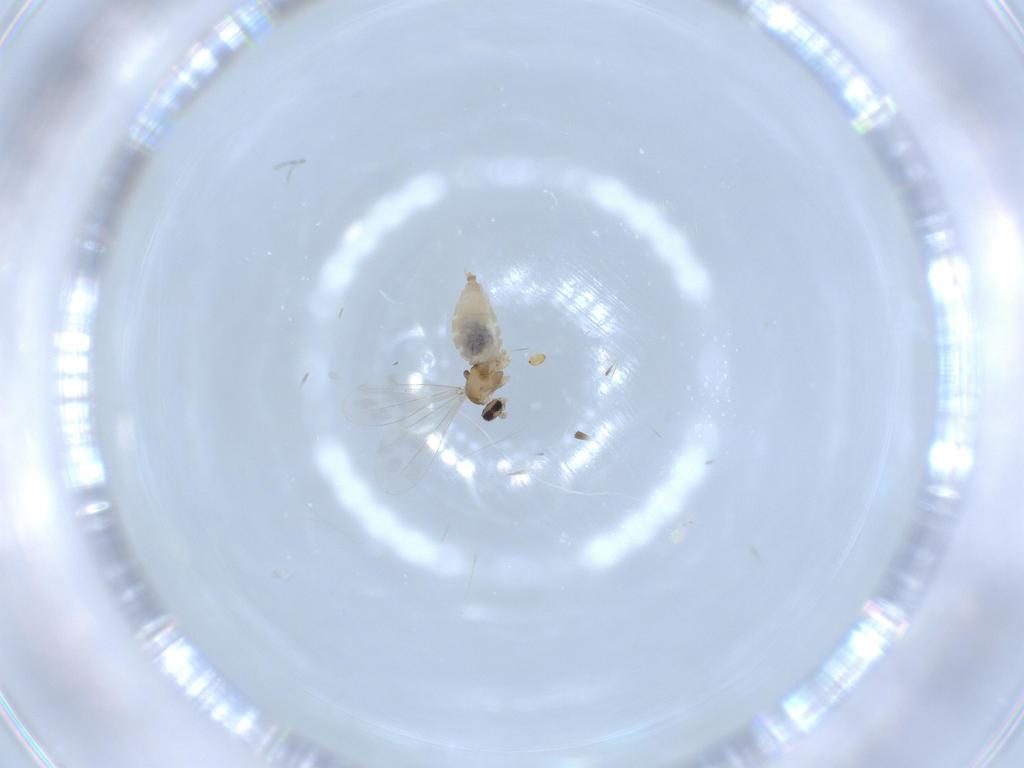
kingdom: Animalia
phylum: Arthropoda
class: Insecta
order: Diptera
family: Cecidomyiidae
